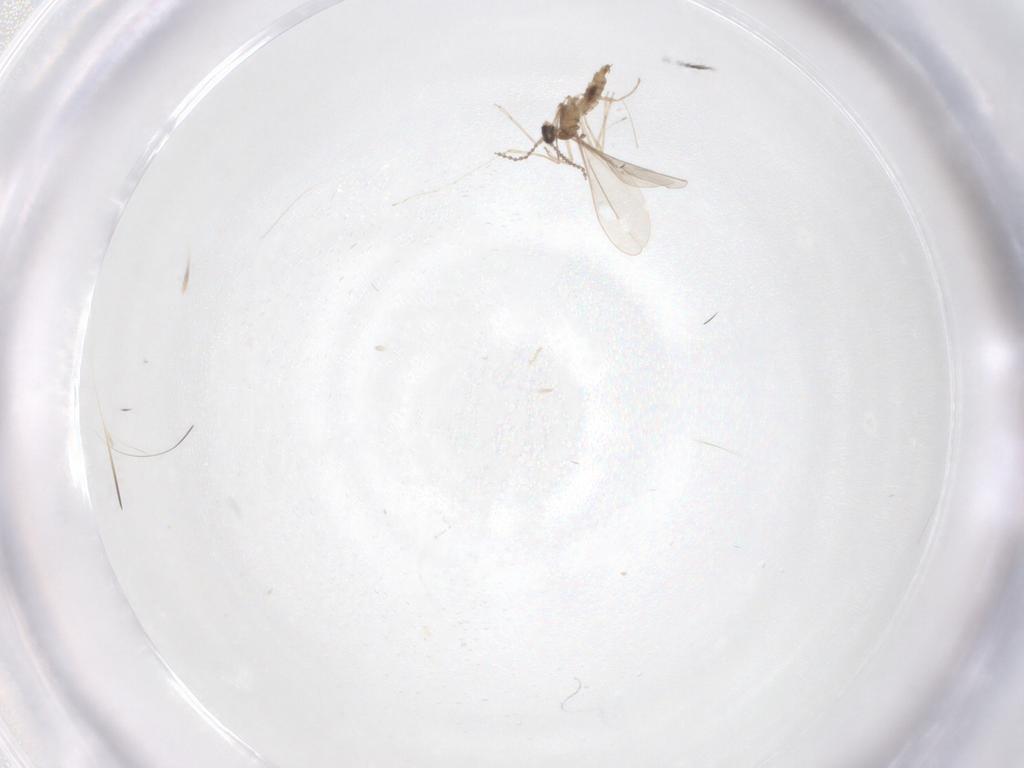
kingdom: Animalia
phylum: Arthropoda
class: Insecta
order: Diptera
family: Cecidomyiidae
